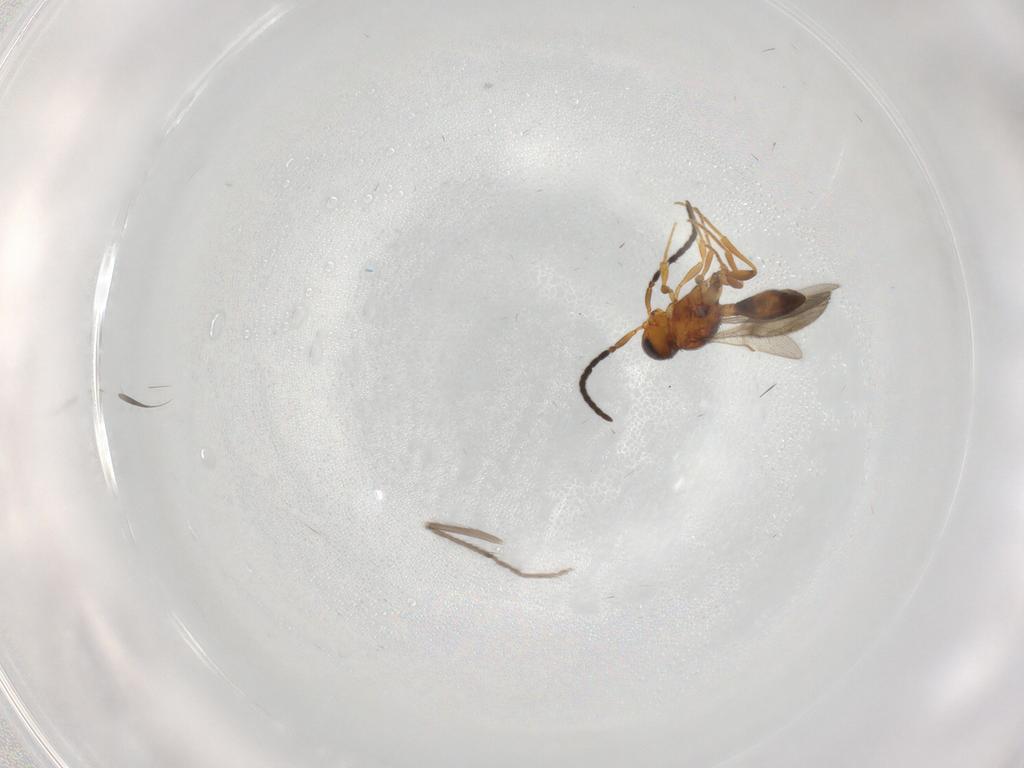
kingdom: Animalia
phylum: Arthropoda
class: Insecta
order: Hymenoptera
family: Scelionidae
